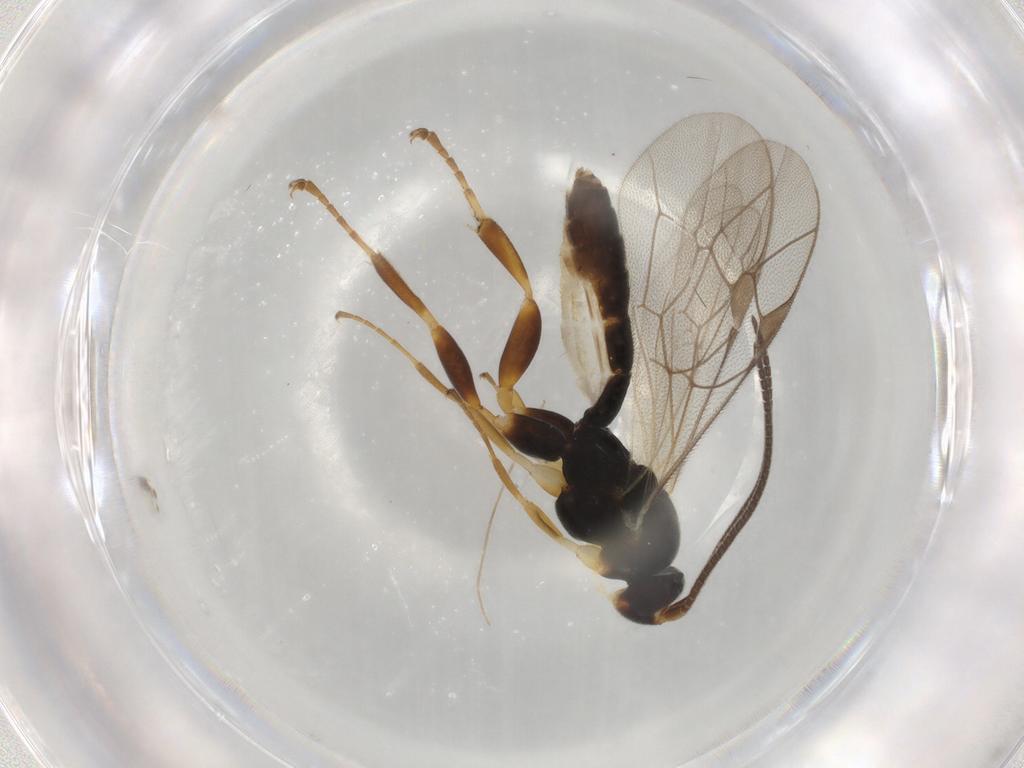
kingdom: Animalia
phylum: Arthropoda
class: Insecta
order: Hymenoptera
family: Ichneumonidae
